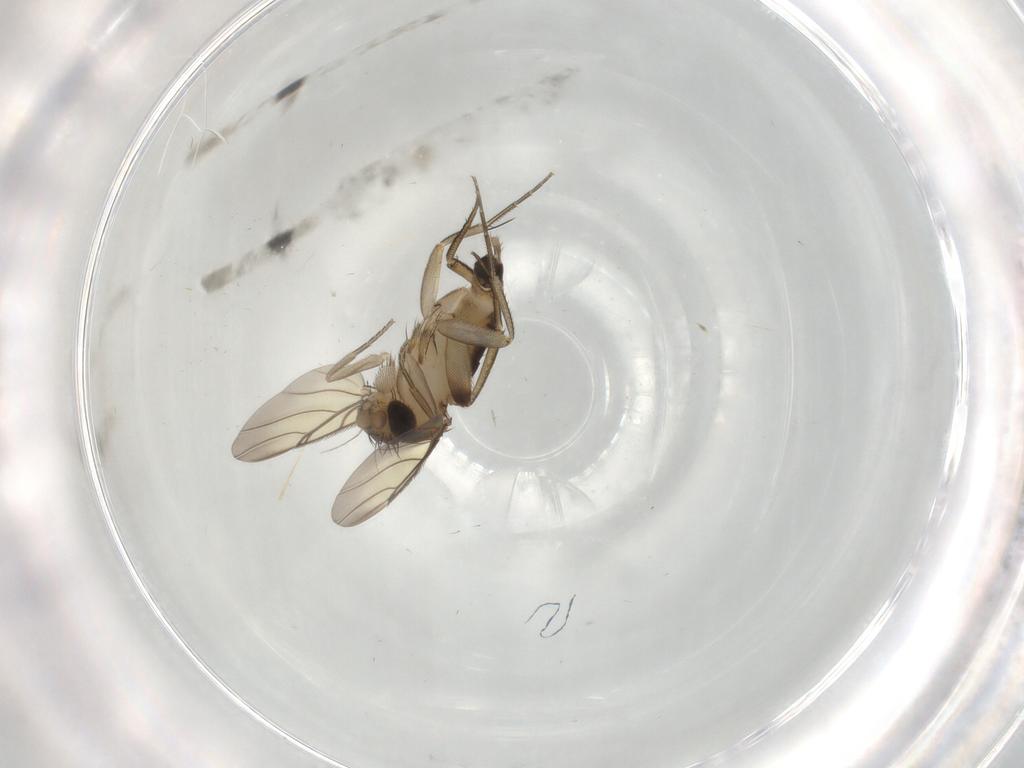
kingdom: Animalia
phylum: Arthropoda
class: Insecta
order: Diptera
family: Phoridae
